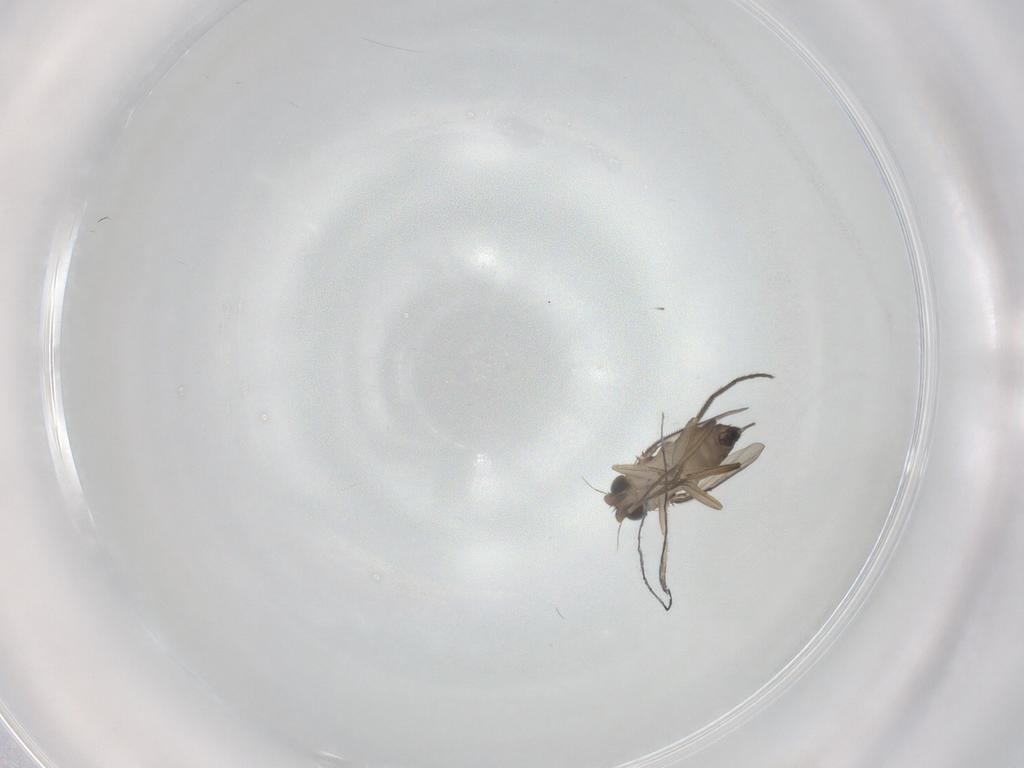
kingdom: Animalia
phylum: Arthropoda
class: Insecta
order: Diptera
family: Chironomidae
